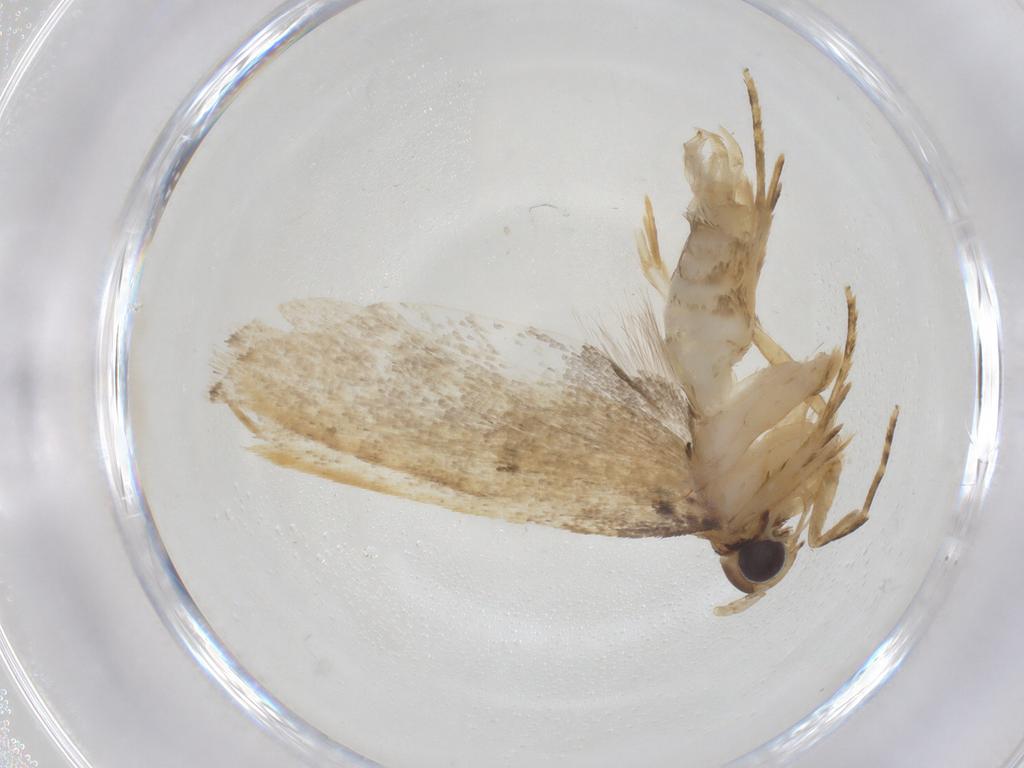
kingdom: Animalia
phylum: Arthropoda
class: Insecta
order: Lepidoptera
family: Lecithoceridae
